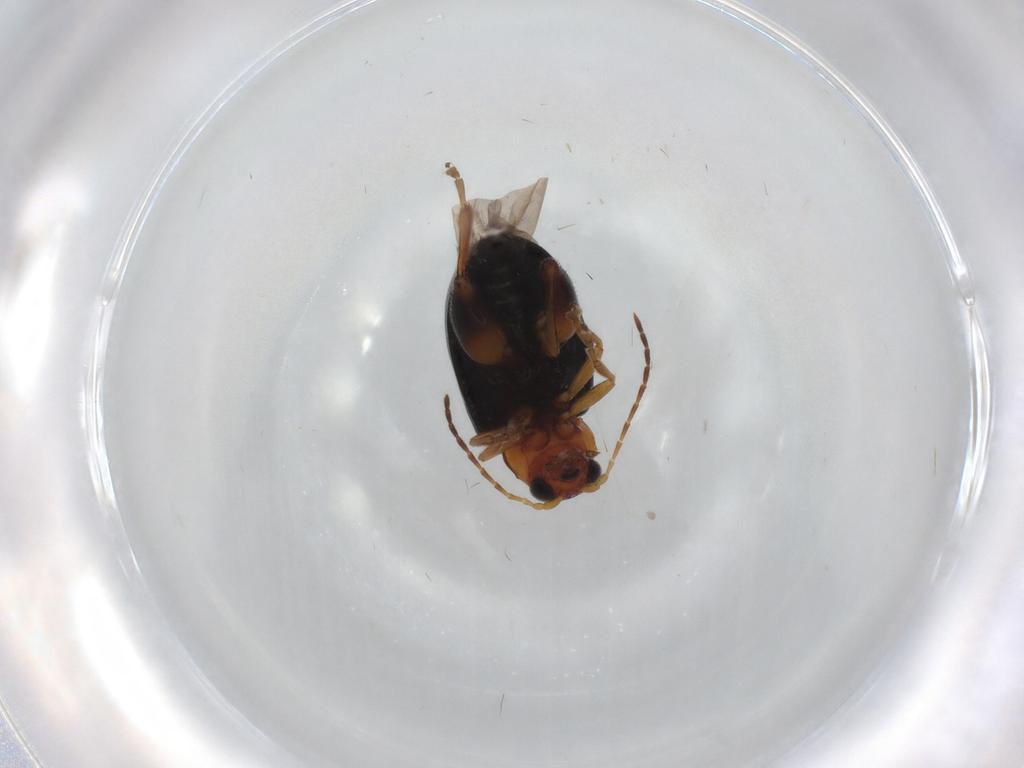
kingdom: Animalia
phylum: Arthropoda
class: Insecta
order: Coleoptera
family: Chrysomelidae
